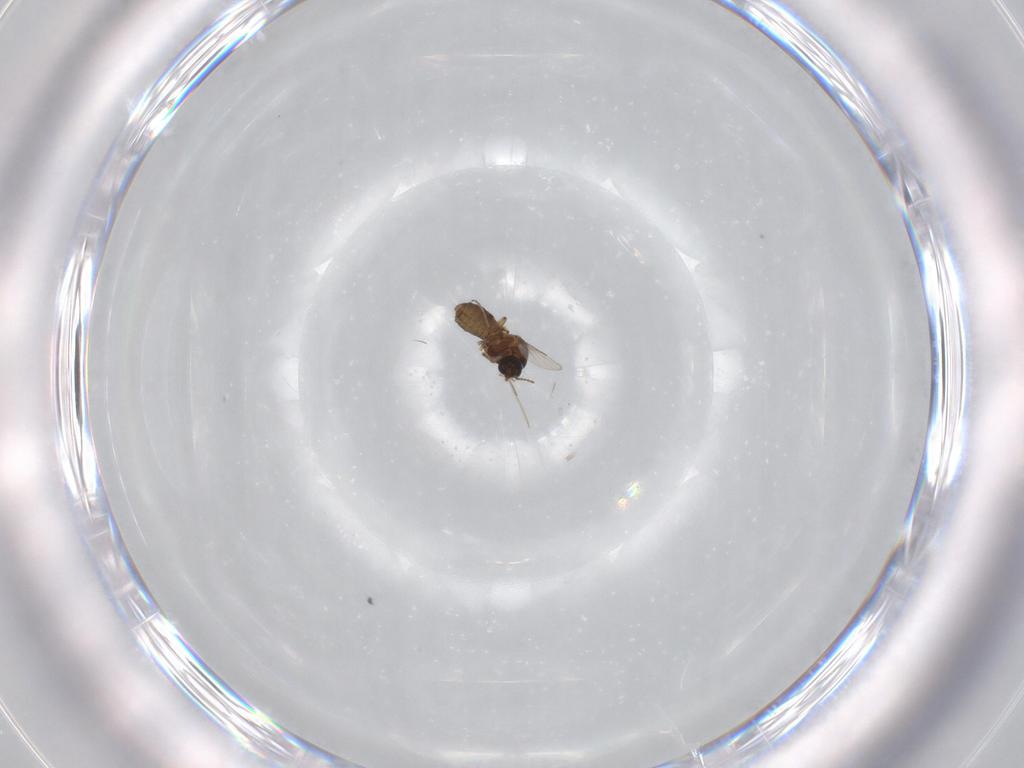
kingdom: Animalia
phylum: Arthropoda
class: Insecta
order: Diptera
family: Ceratopogonidae
